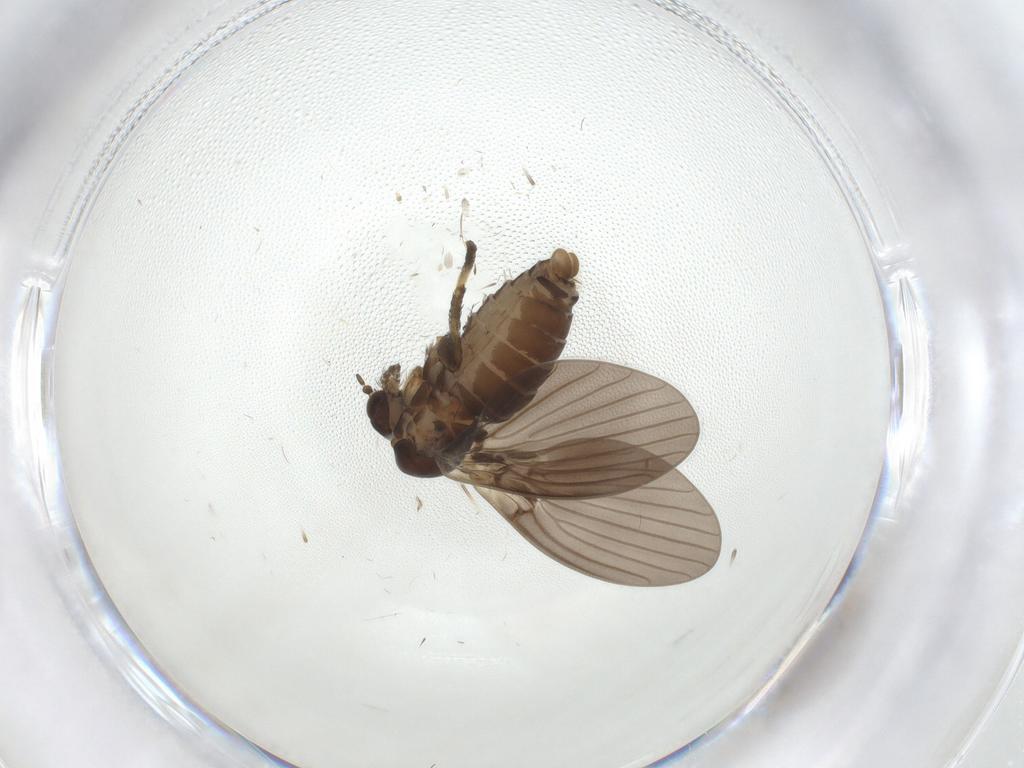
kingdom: Animalia
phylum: Arthropoda
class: Insecta
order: Diptera
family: Psychodidae
